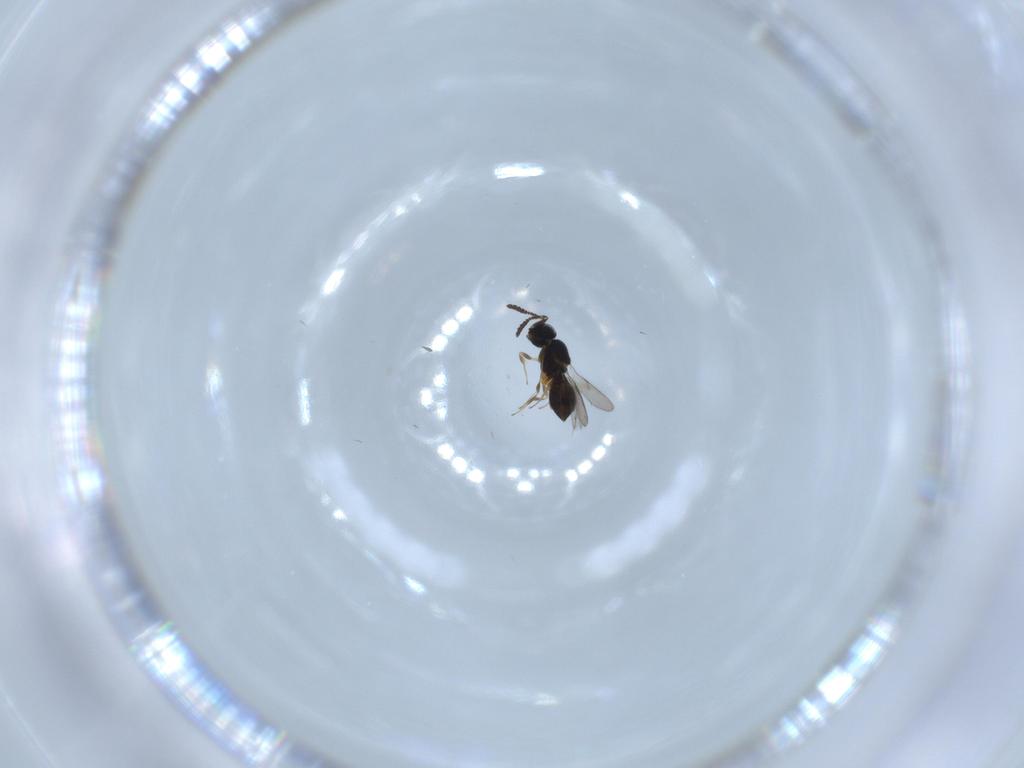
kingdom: Animalia
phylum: Arthropoda
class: Insecta
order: Hymenoptera
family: Scelionidae
